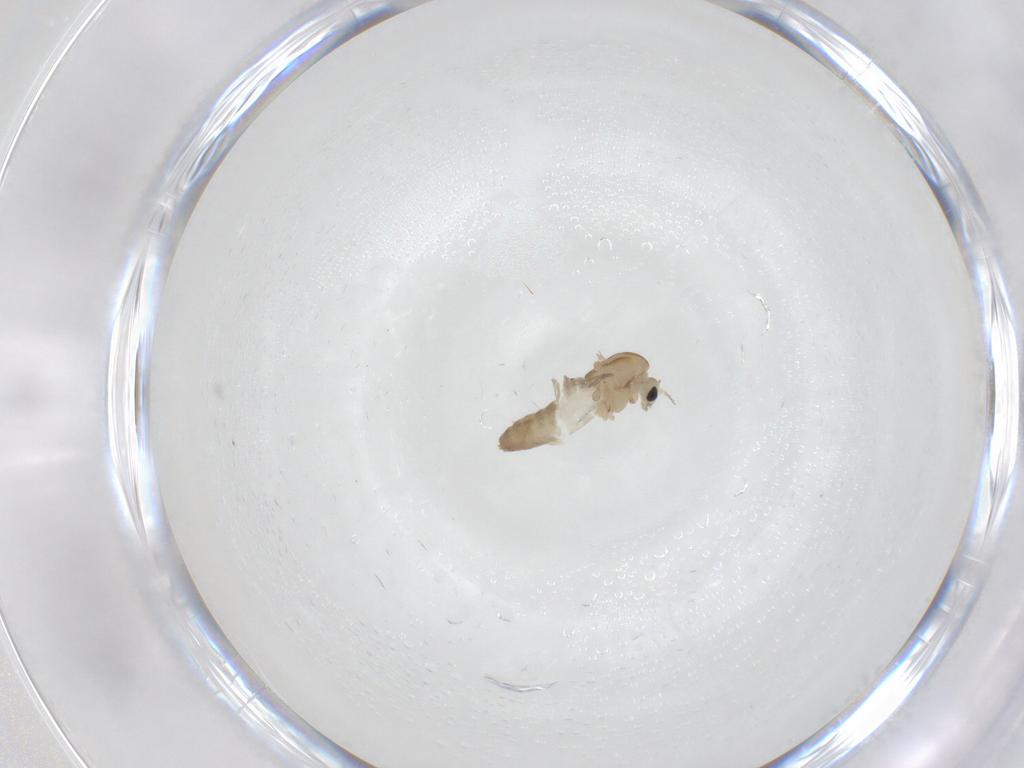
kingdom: Animalia
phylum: Arthropoda
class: Insecta
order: Diptera
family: Chironomidae
